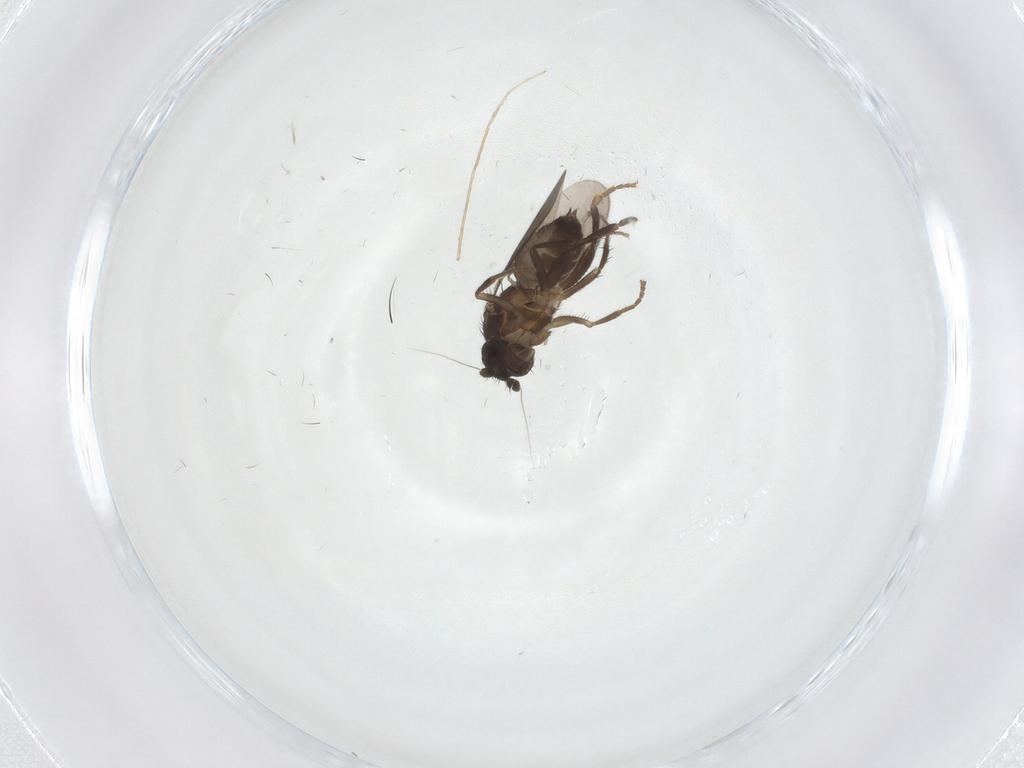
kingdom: Animalia
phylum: Arthropoda
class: Insecta
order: Diptera
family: Sphaeroceridae
